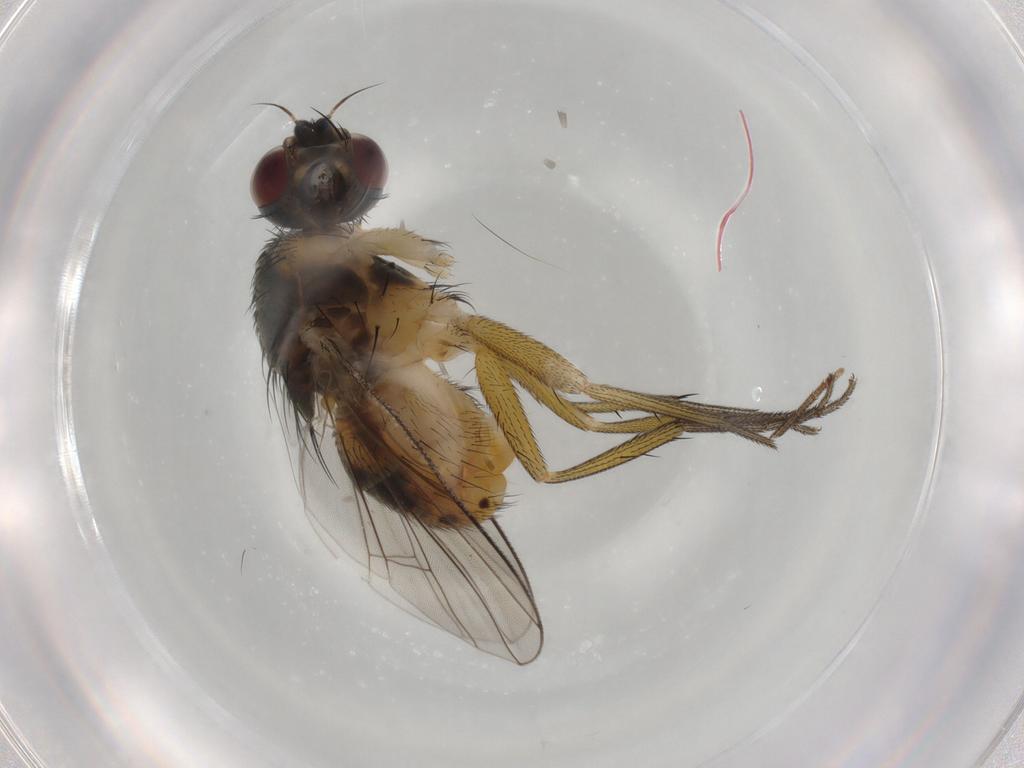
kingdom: Animalia
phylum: Arthropoda
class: Insecta
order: Diptera
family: Muscidae
